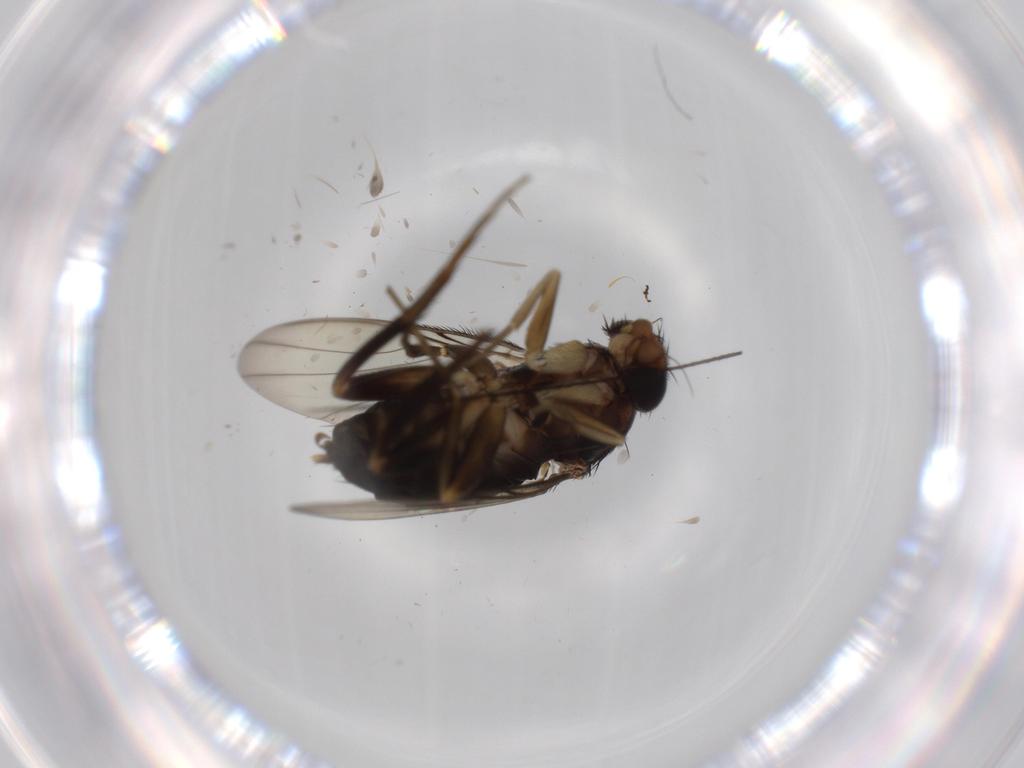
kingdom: Animalia
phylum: Arthropoda
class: Insecta
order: Diptera
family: Phoridae
